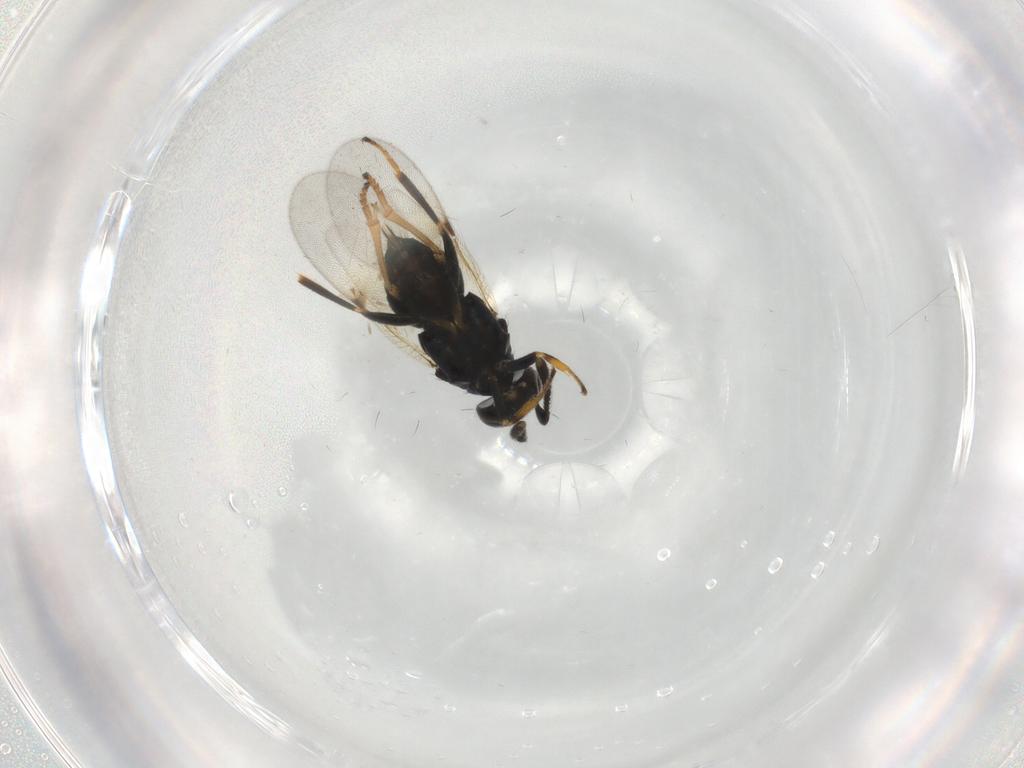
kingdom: Animalia
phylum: Arthropoda
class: Insecta
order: Hymenoptera
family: Encyrtidae
